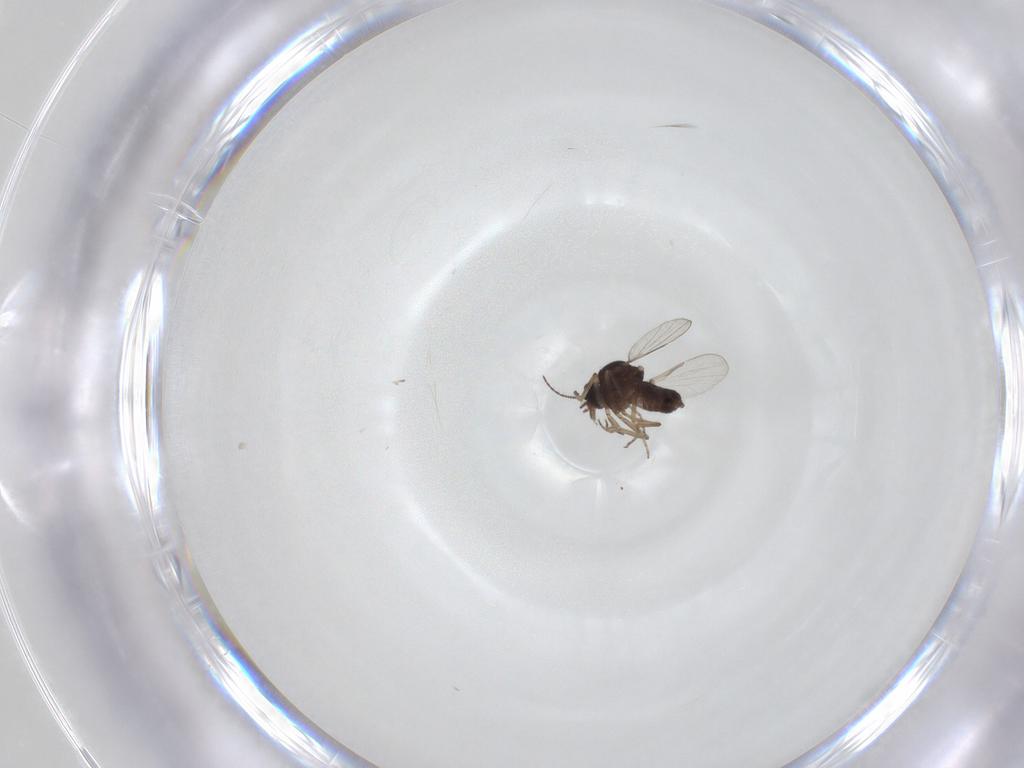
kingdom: Animalia
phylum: Arthropoda
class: Insecta
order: Diptera
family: Ceratopogonidae
